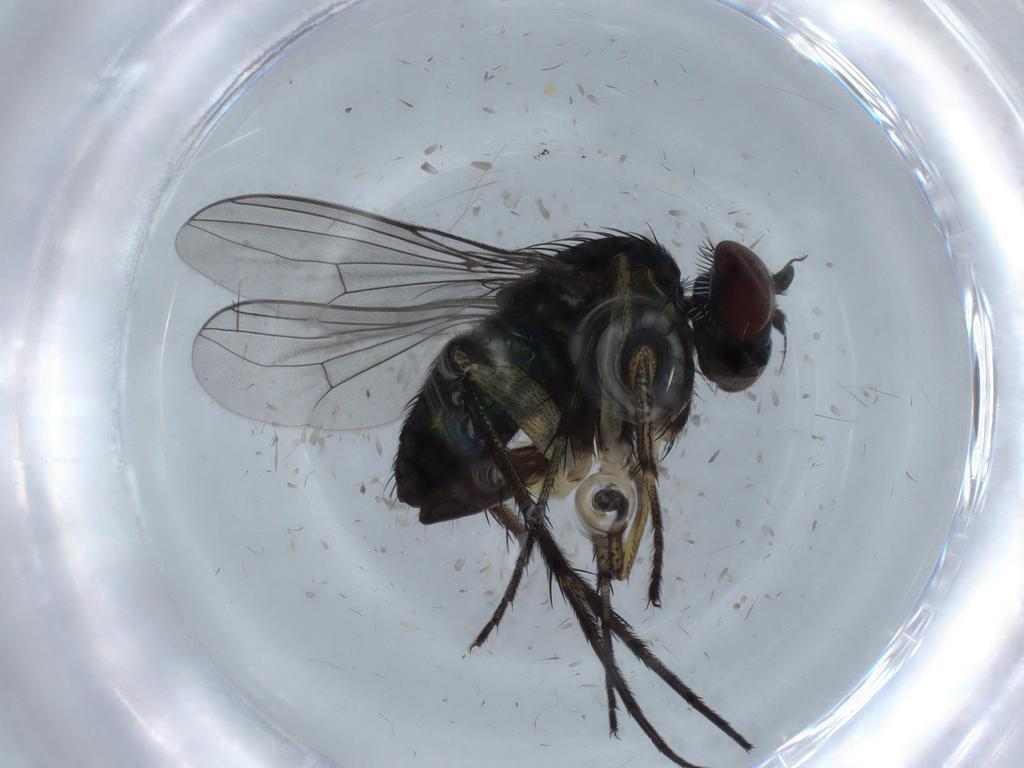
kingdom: Animalia
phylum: Arthropoda
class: Insecta
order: Diptera
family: Dolichopodidae
